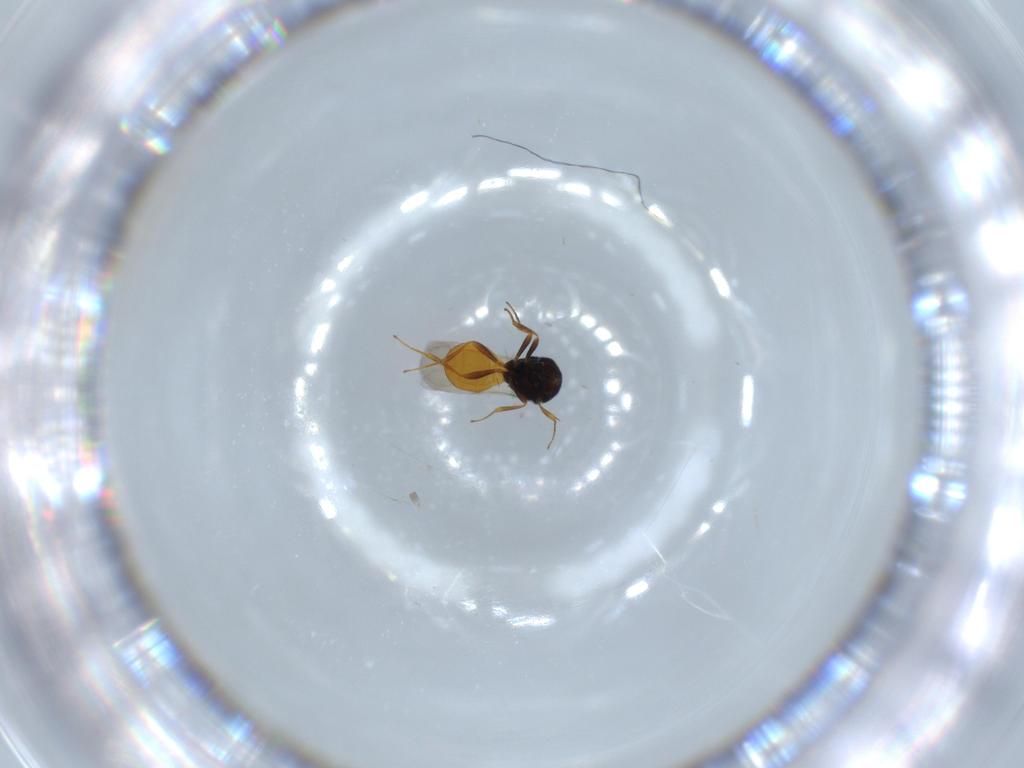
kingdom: Animalia
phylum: Arthropoda
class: Insecta
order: Hymenoptera
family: Scelionidae
